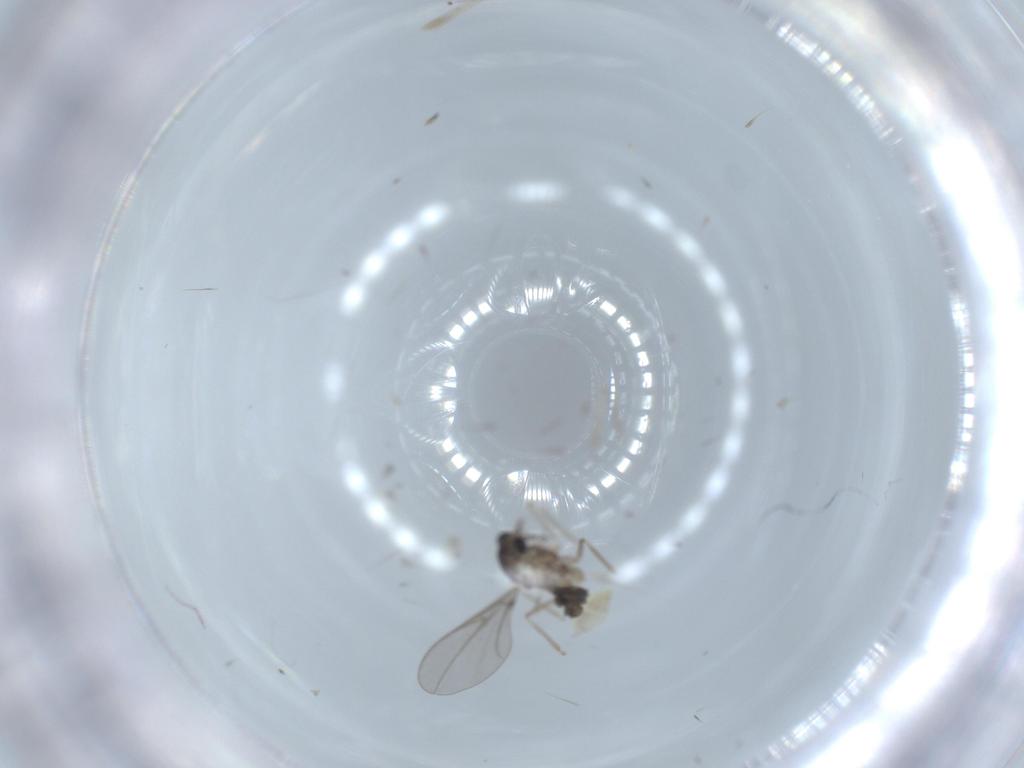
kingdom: Animalia
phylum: Arthropoda
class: Insecta
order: Diptera
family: Cecidomyiidae
